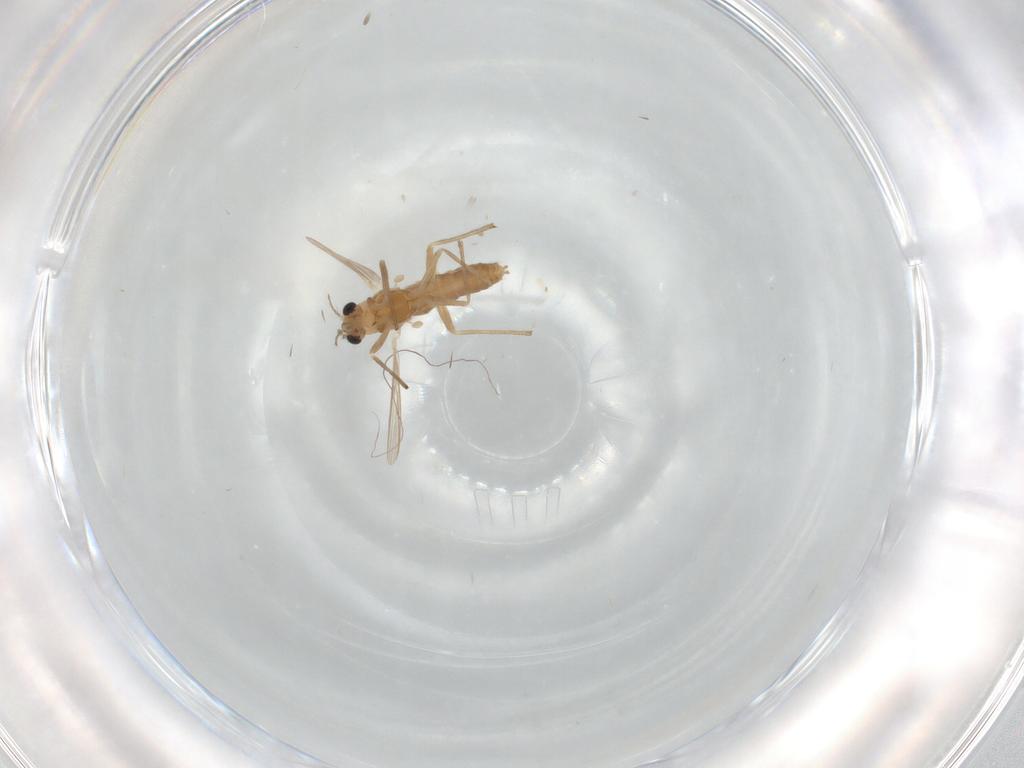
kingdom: Animalia
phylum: Arthropoda
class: Insecta
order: Diptera
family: Chironomidae
